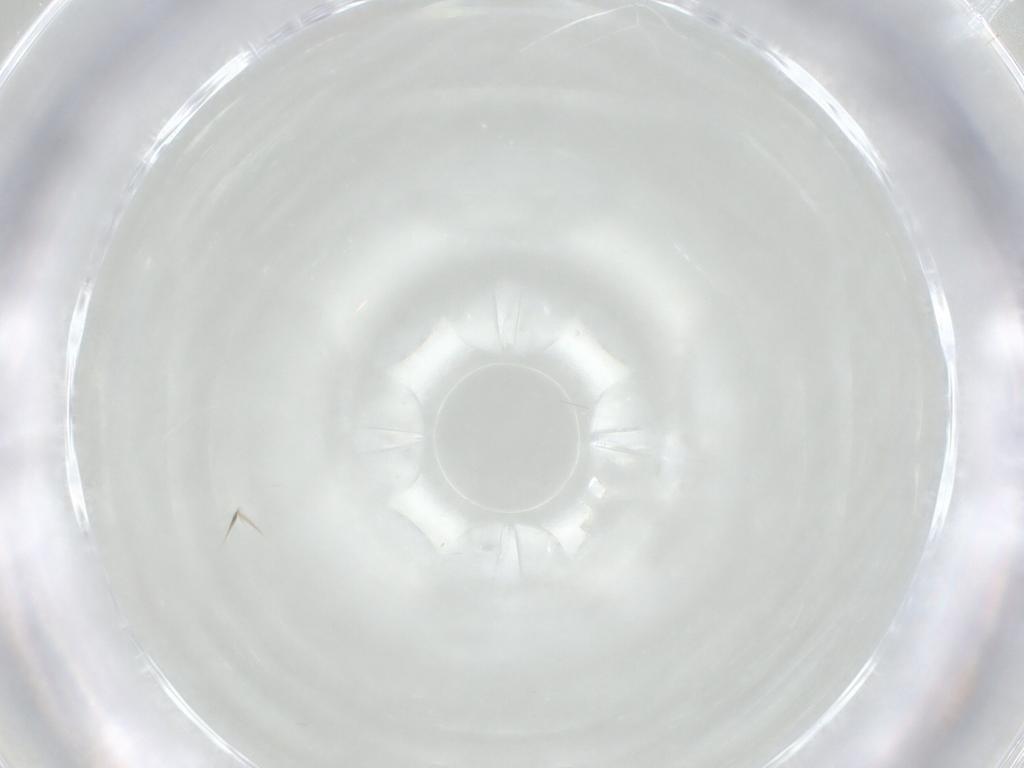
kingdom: Animalia
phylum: Arthropoda
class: Insecta
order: Hymenoptera
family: Mymaridae
